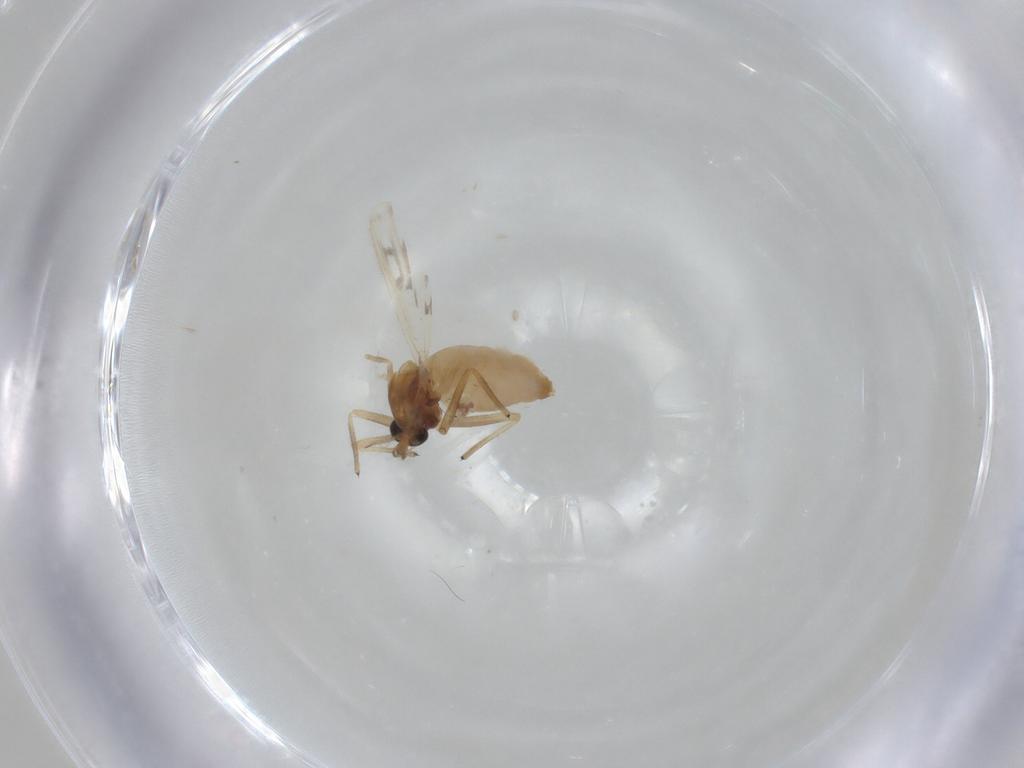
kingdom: Animalia
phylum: Arthropoda
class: Insecta
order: Diptera
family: Chironomidae
